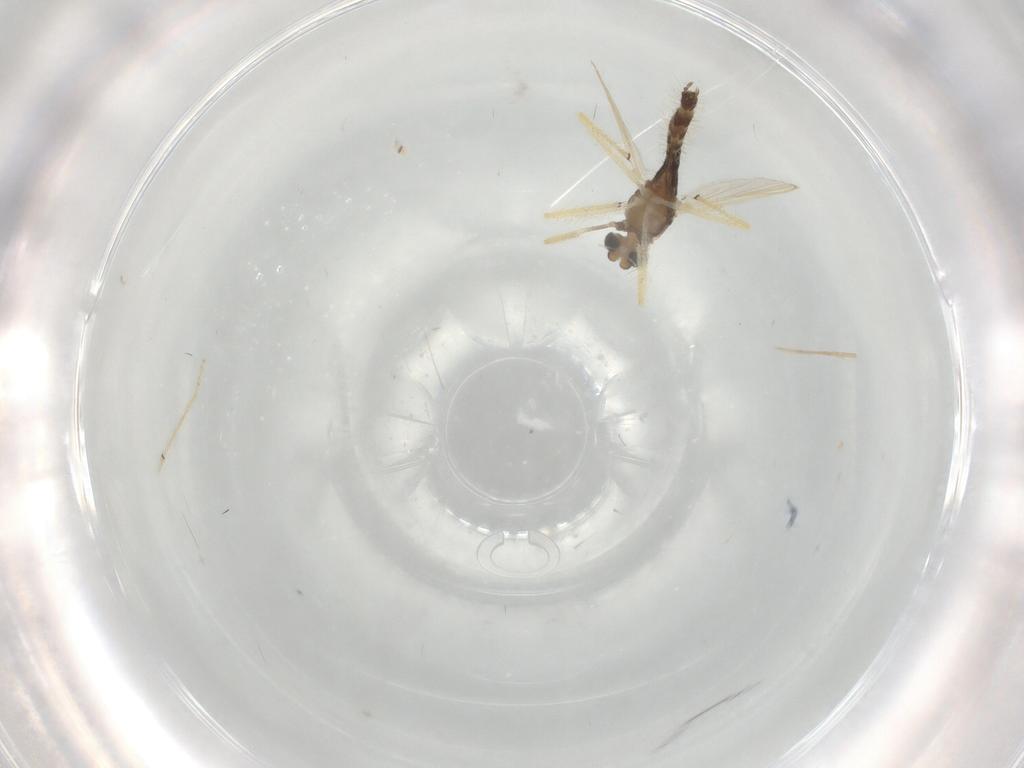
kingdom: Animalia
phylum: Arthropoda
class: Insecta
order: Diptera
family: Chironomidae
